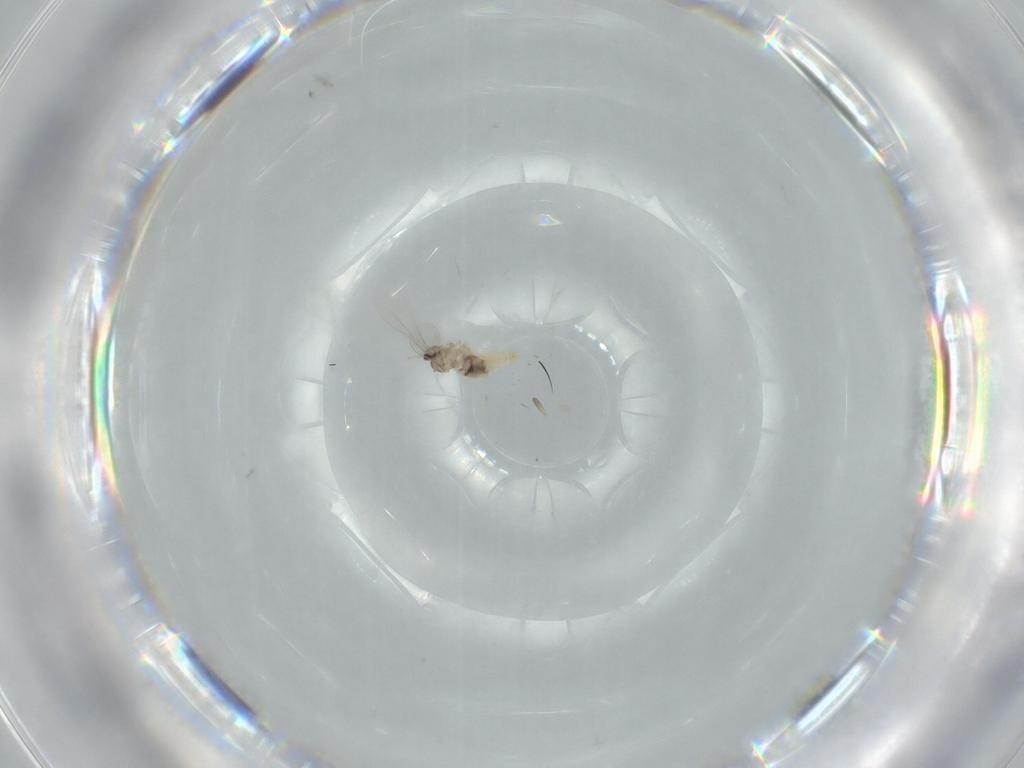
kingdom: Animalia
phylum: Arthropoda
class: Insecta
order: Diptera
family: Cecidomyiidae
